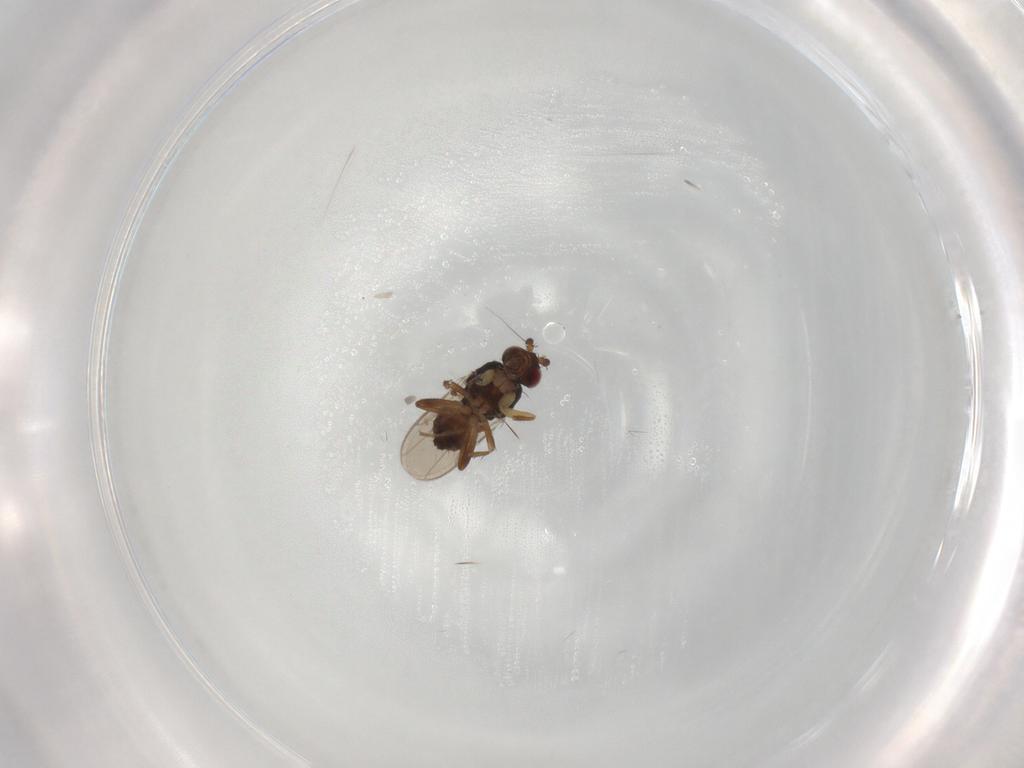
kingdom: Animalia
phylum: Arthropoda
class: Insecta
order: Diptera
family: Sphaeroceridae
